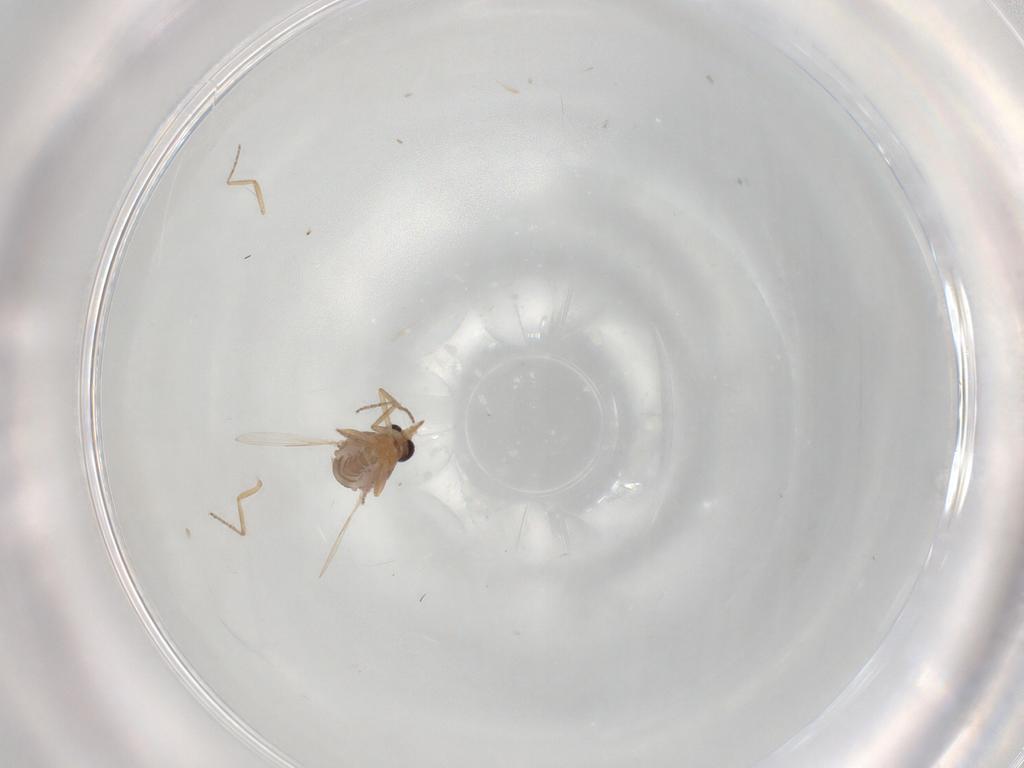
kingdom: Animalia
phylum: Arthropoda
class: Insecta
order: Diptera
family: Ceratopogonidae
